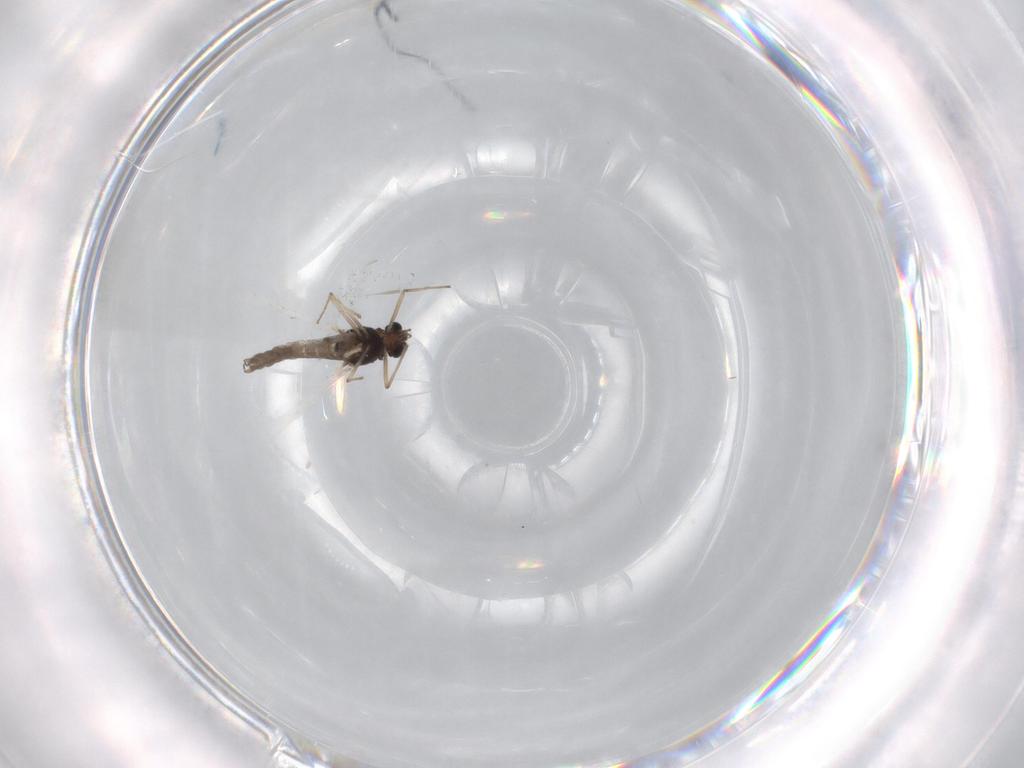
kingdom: Animalia
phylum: Arthropoda
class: Insecta
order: Diptera
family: Chironomidae
